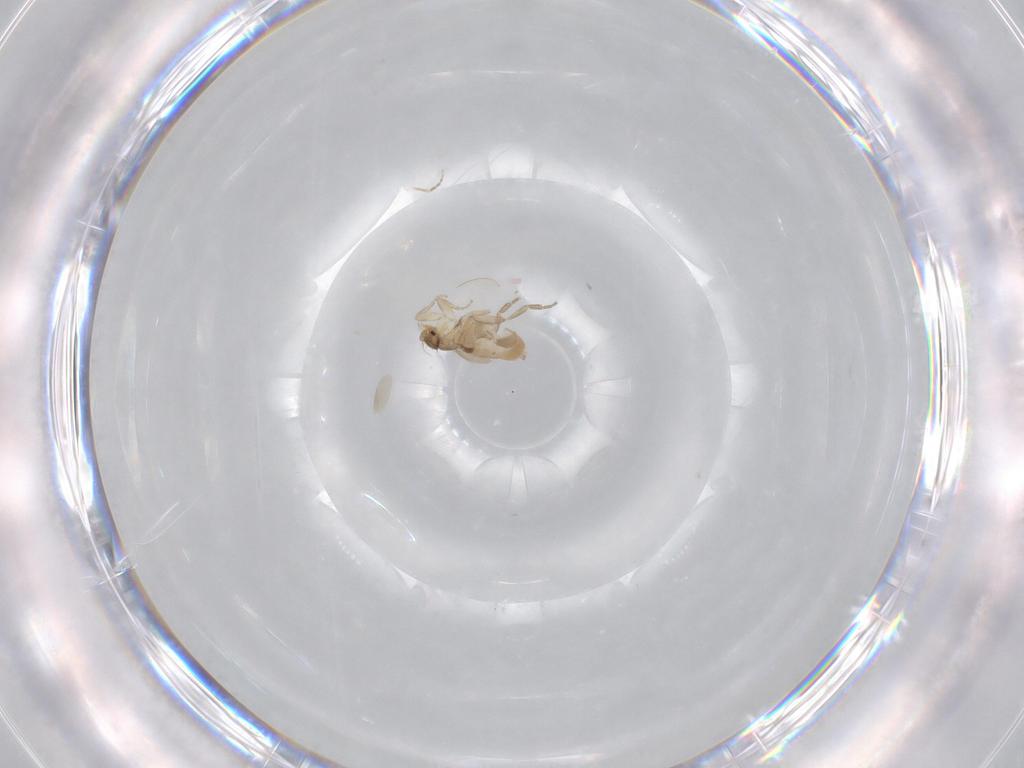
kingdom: Animalia
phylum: Arthropoda
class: Insecta
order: Diptera
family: Phoridae
